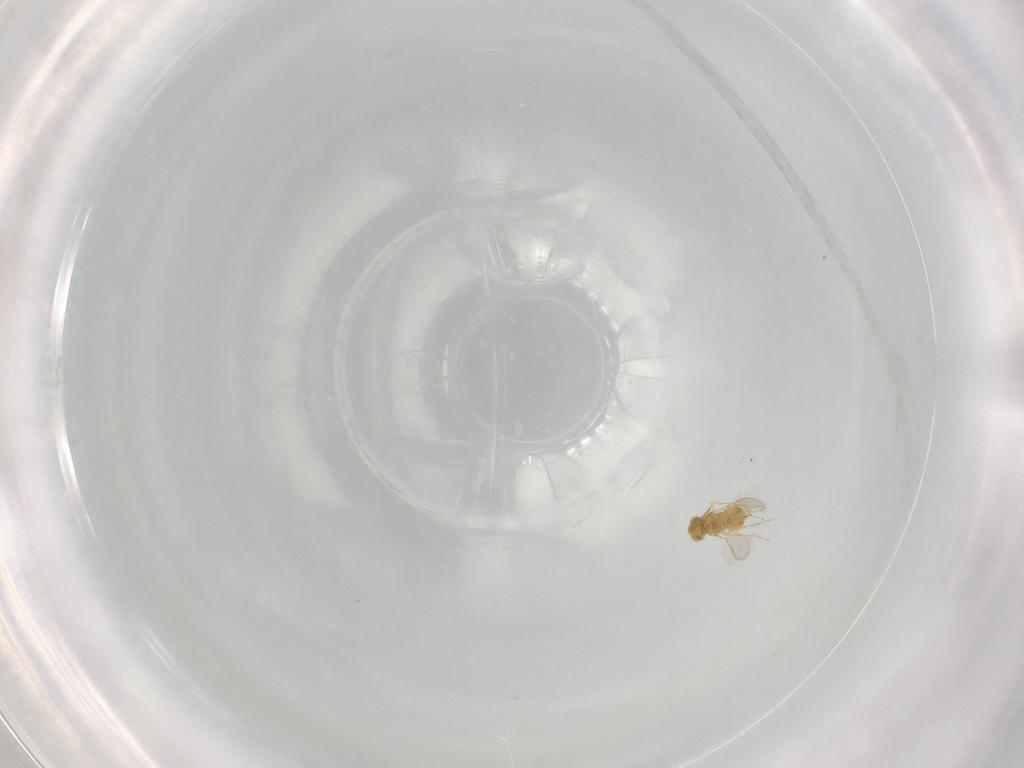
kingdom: Animalia
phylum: Arthropoda
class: Insecta
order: Hymenoptera
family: Aphelinidae
